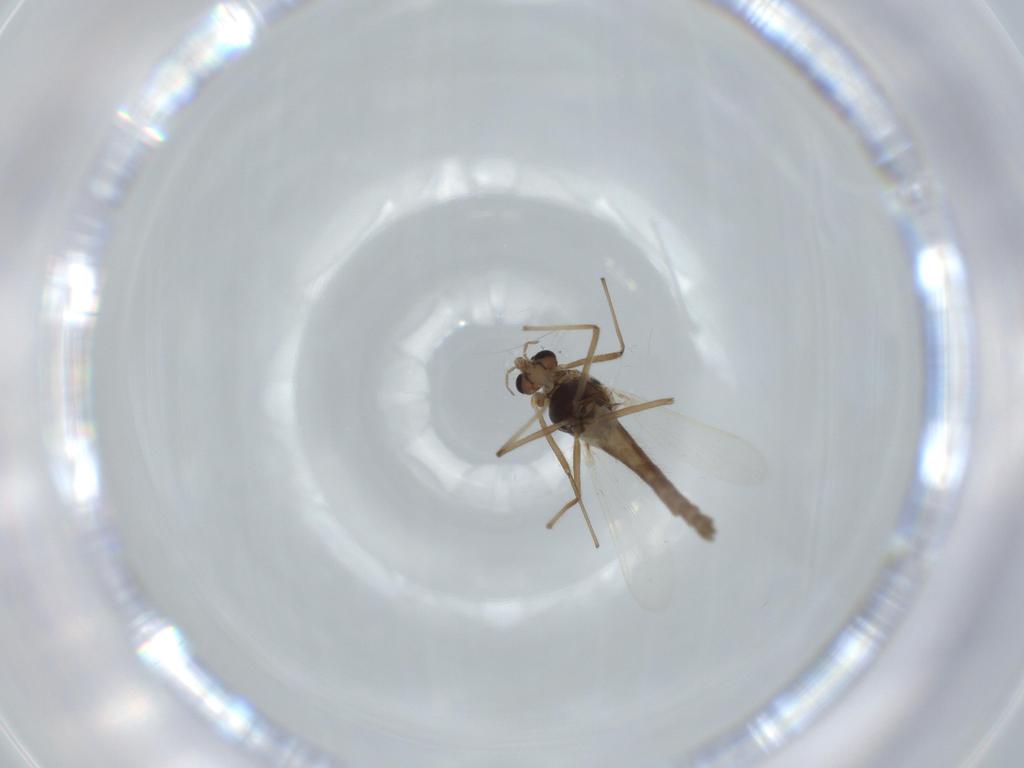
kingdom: Animalia
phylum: Arthropoda
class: Insecta
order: Diptera
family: Chironomidae
